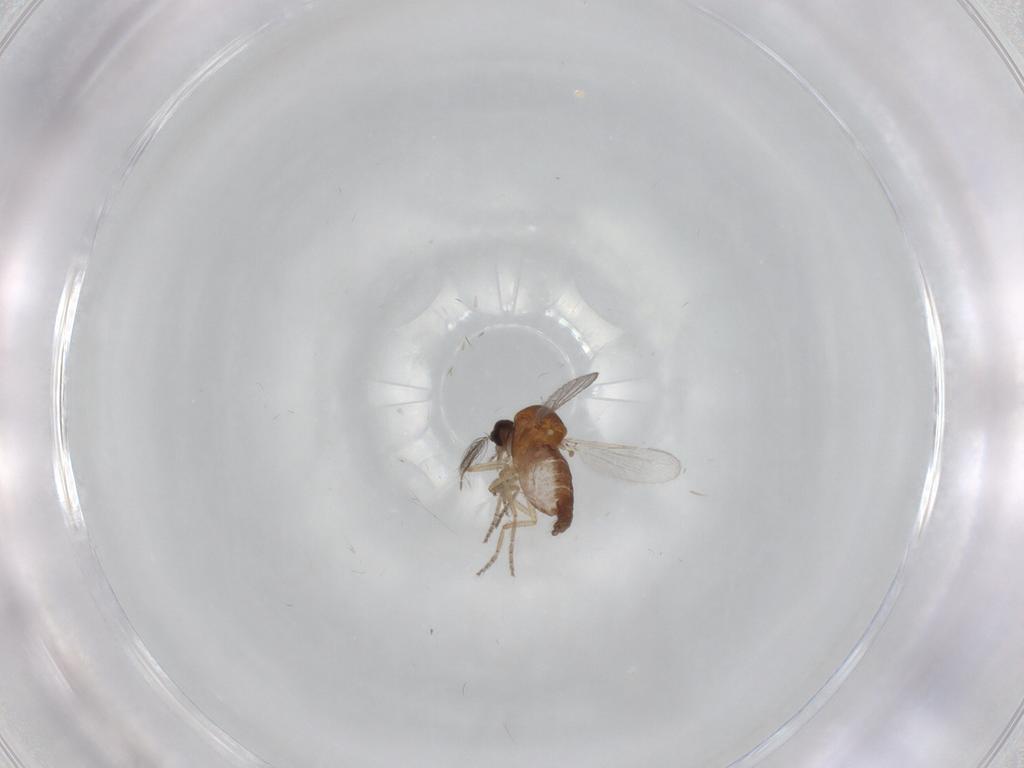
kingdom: Animalia
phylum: Arthropoda
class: Insecta
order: Diptera
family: Ceratopogonidae
